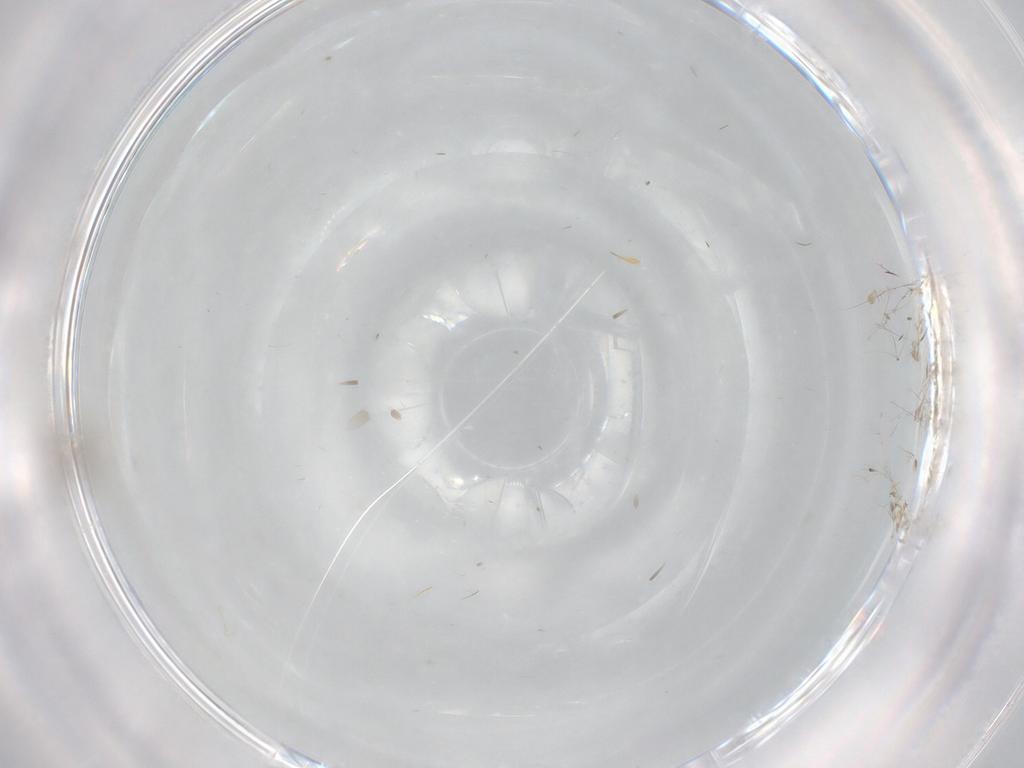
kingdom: Animalia
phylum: Arthropoda
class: Insecta
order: Diptera
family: Psychodidae
